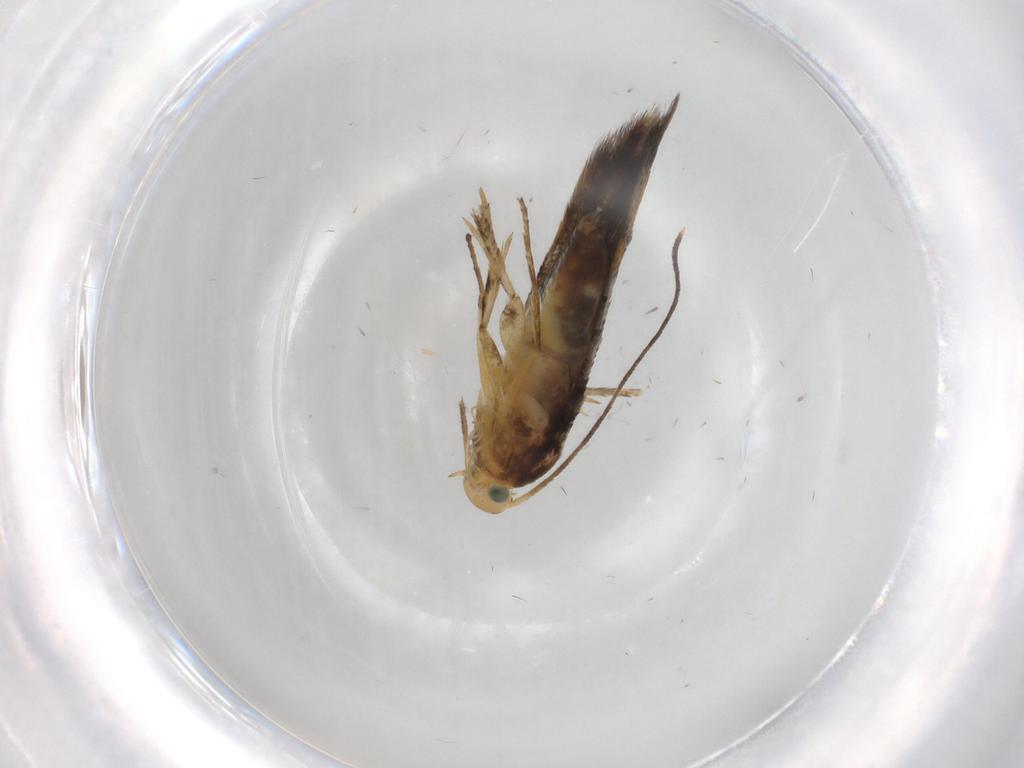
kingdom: Animalia
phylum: Arthropoda
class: Insecta
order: Lepidoptera
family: Heliodinidae
